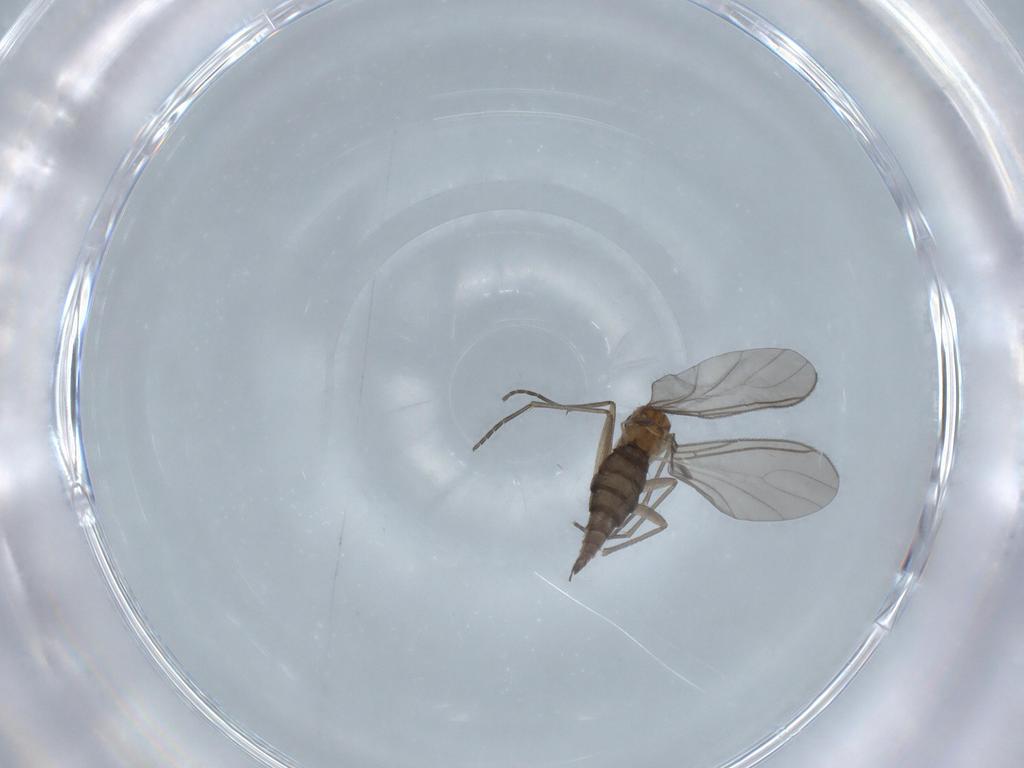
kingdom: Animalia
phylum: Arthropoda
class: Insecta
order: Diptera
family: Sciaridae
